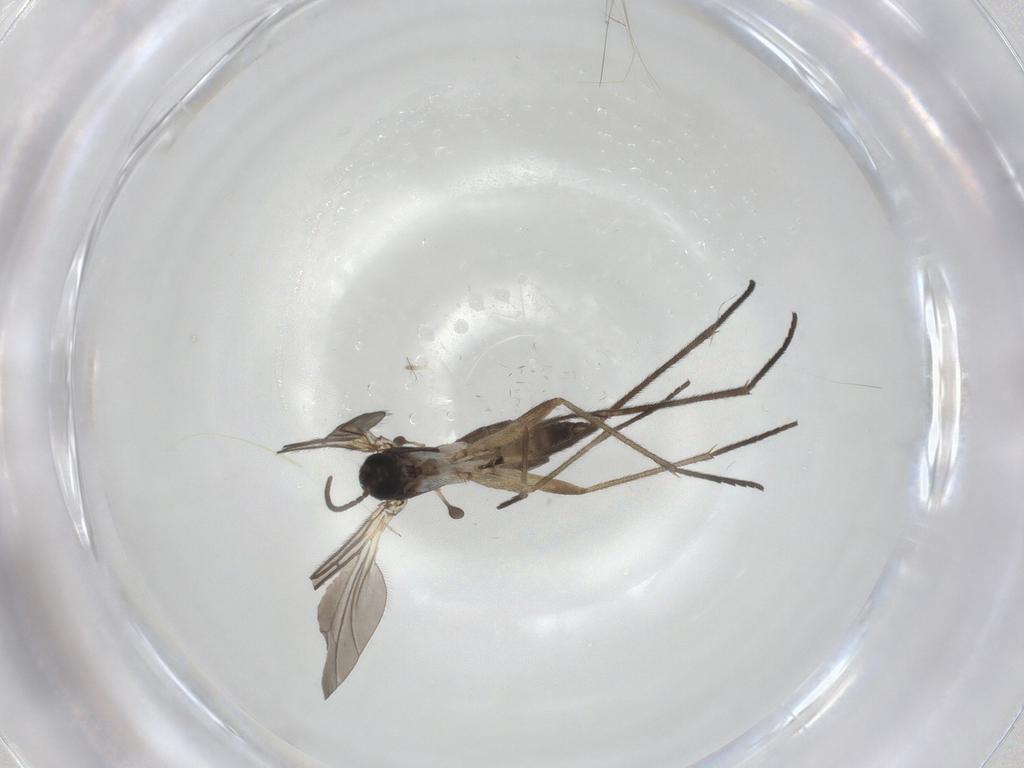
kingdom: Animalia
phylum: Arthropoda
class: Insecta
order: Diptera
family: Sciaridae
